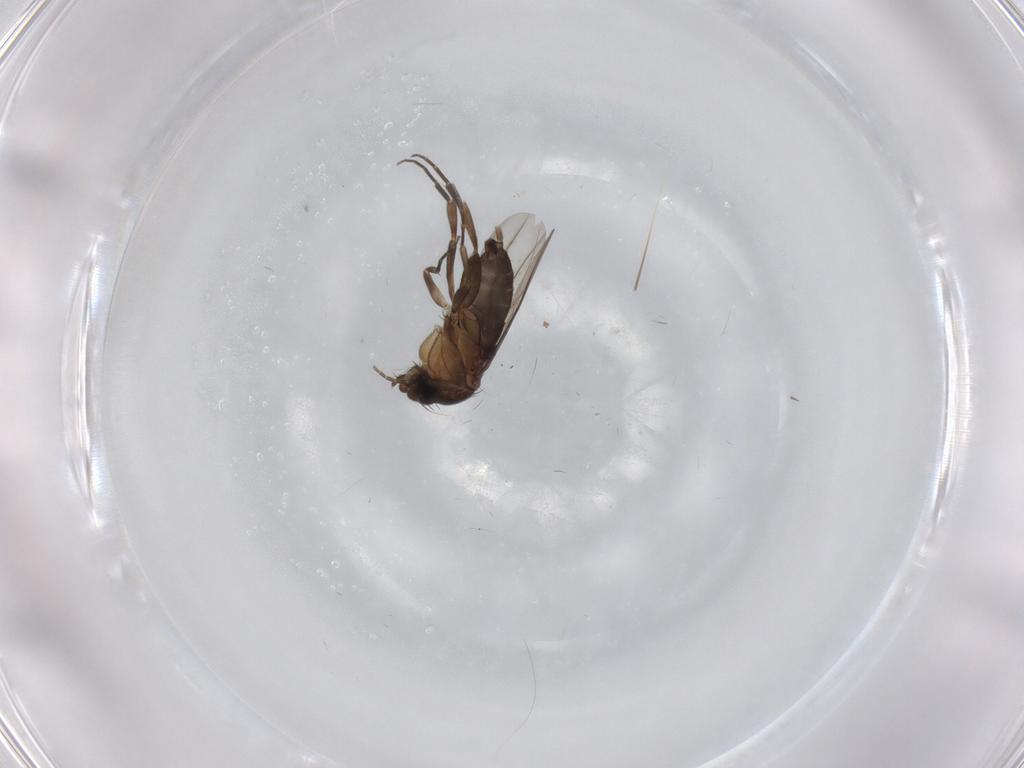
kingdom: Animalia
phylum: Arthropoda
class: Insecta
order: Diptera
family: Phoridae
